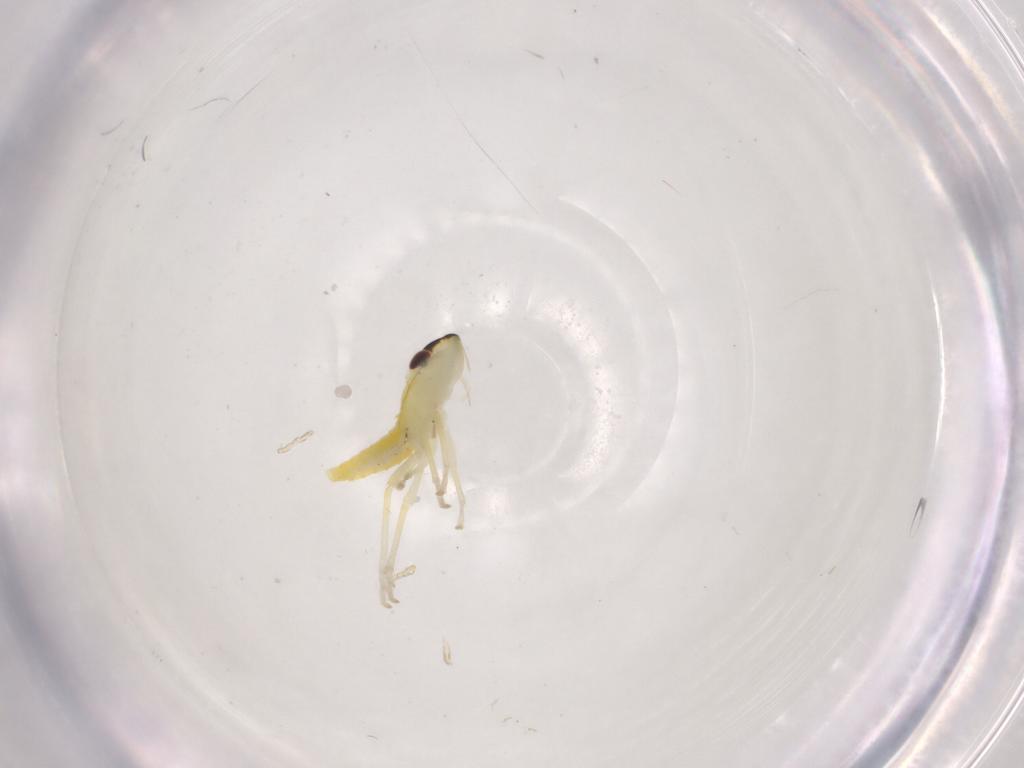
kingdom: Animalia
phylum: Arthropoda
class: Insecta
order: Hemiptera
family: Cicadellidae
